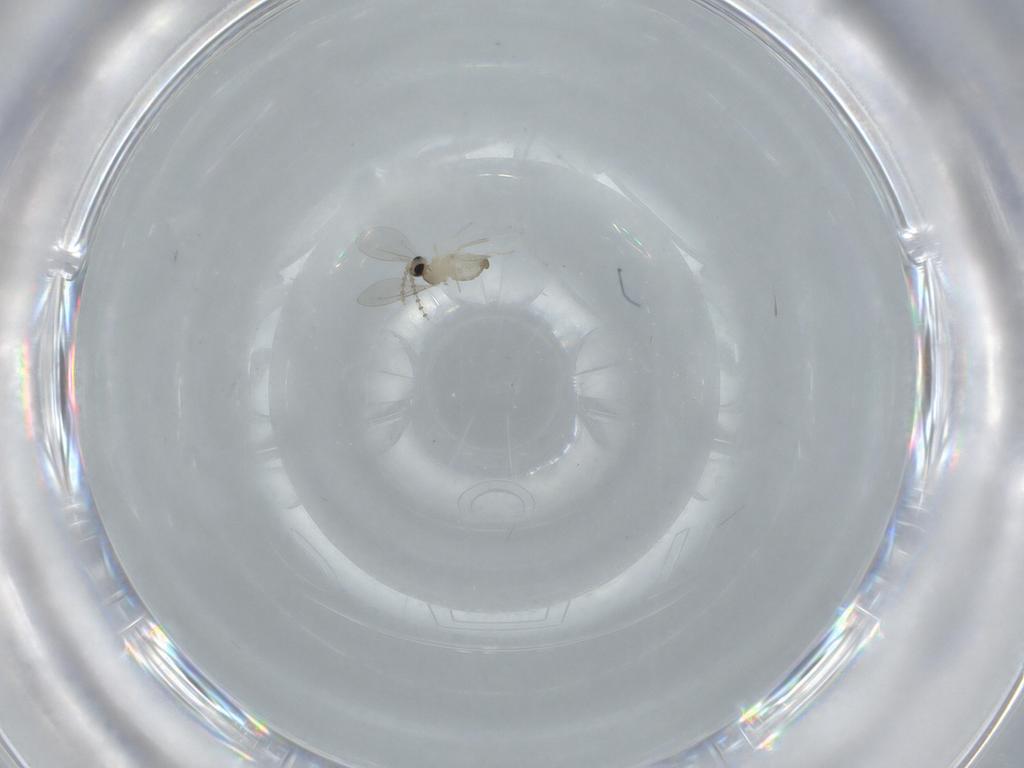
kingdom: Animalia
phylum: Arthropoda
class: Insecta
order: Diptera
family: Cecidomyiidae
